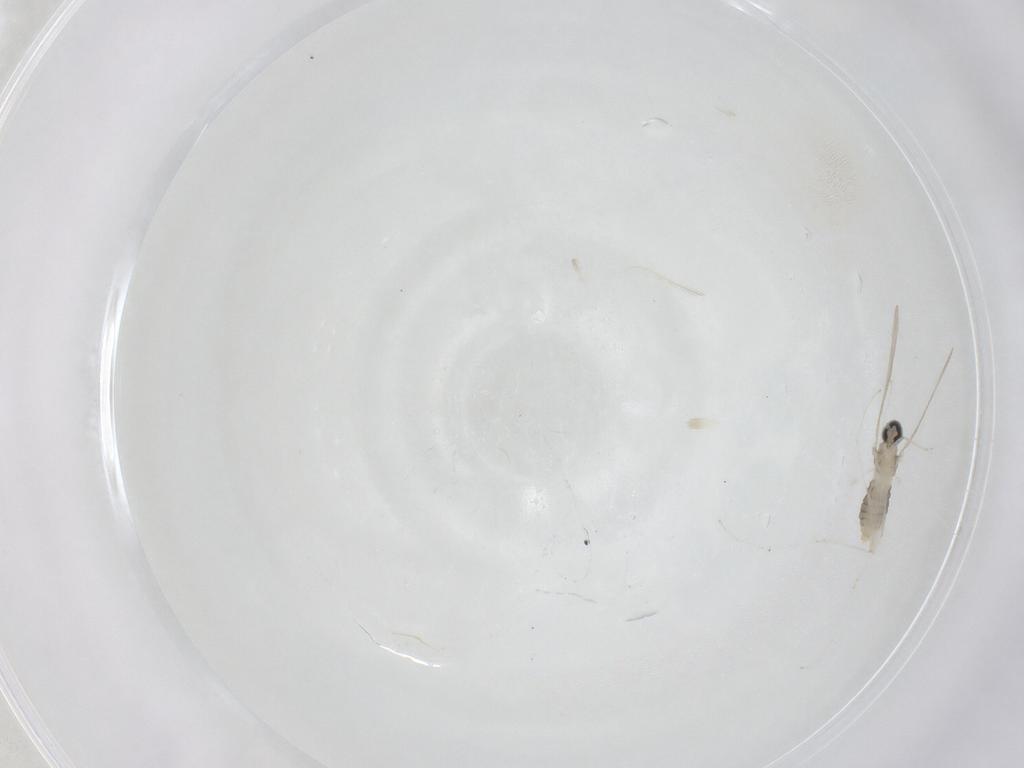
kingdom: Animalia
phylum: Arthropoda
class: Insecta
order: Diptera
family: Cecidomyiidae
